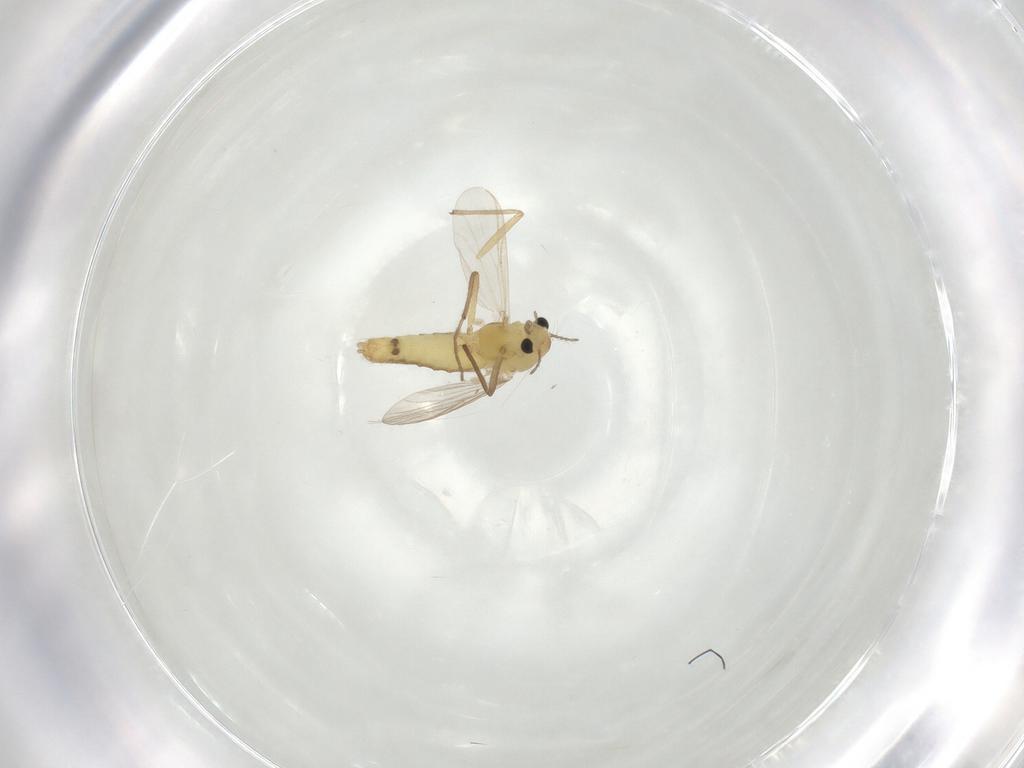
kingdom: Animalia
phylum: Arthropoda
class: Insecta
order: Diptera
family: Chironomidae
